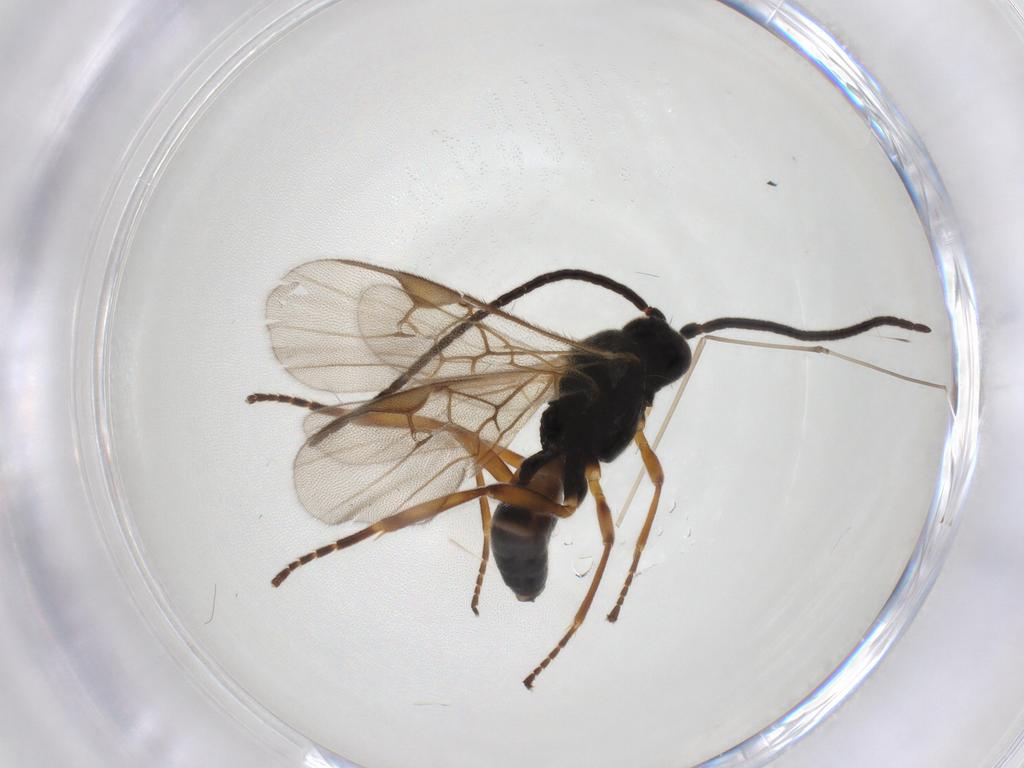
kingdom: Animalia
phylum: Arthropoda
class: Insecta
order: Hymenoptera
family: Braconidae
